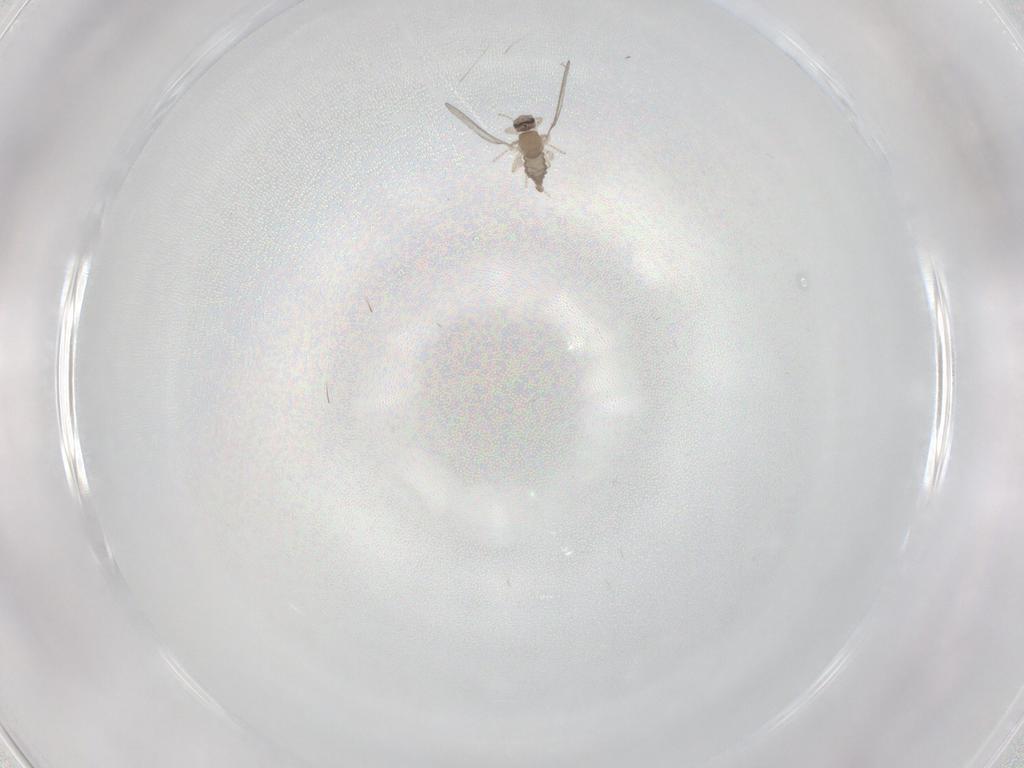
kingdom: Animalia
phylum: Arthropoda
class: Insecta
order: Diptera
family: Cecidomyiidae
